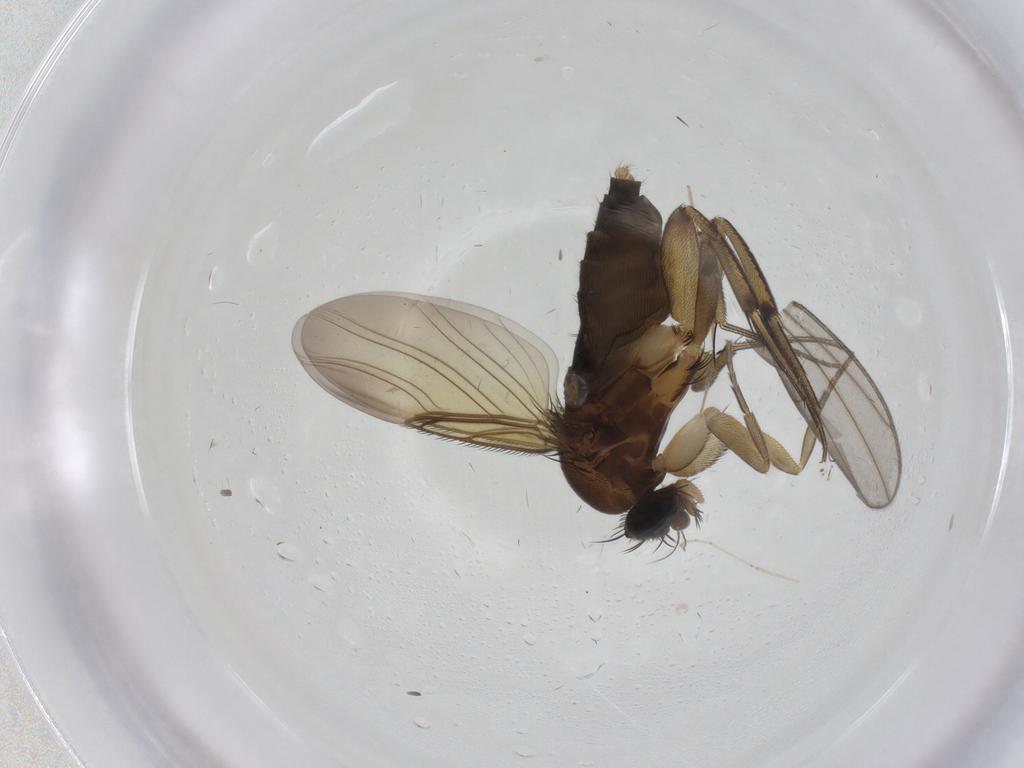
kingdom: Animalia
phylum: Arthropoda
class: Insecta
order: Diptera
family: Phoridae
